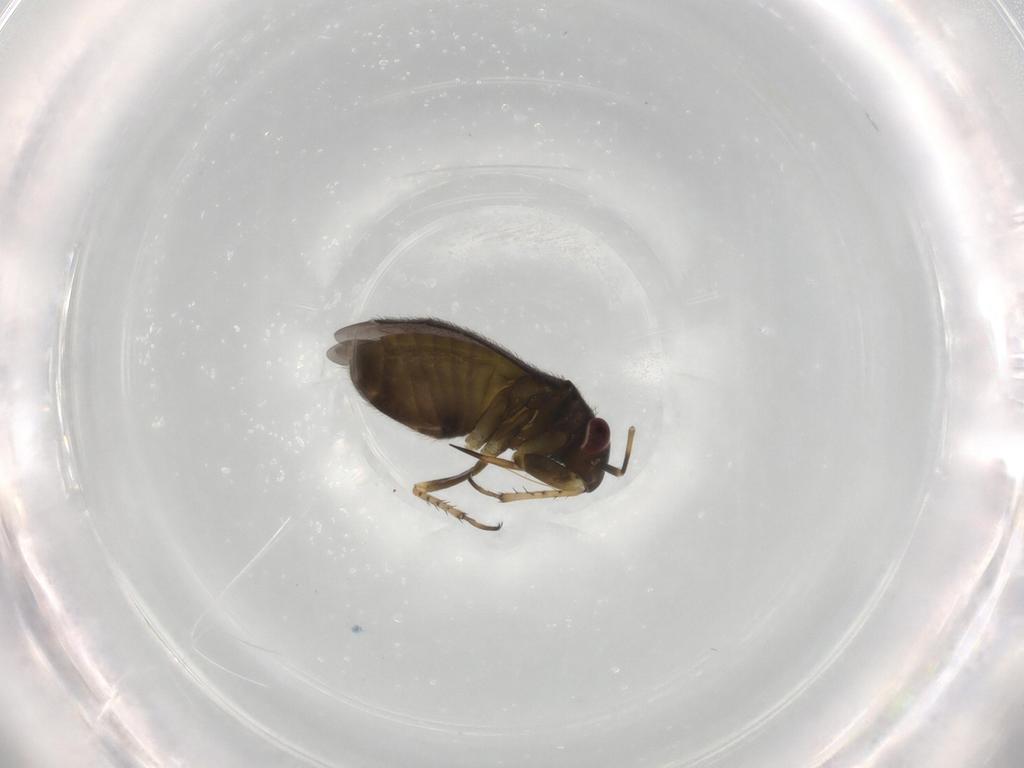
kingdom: Animalia
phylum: Arthropoda
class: Insecta
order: Hemiptera
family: Miridae
